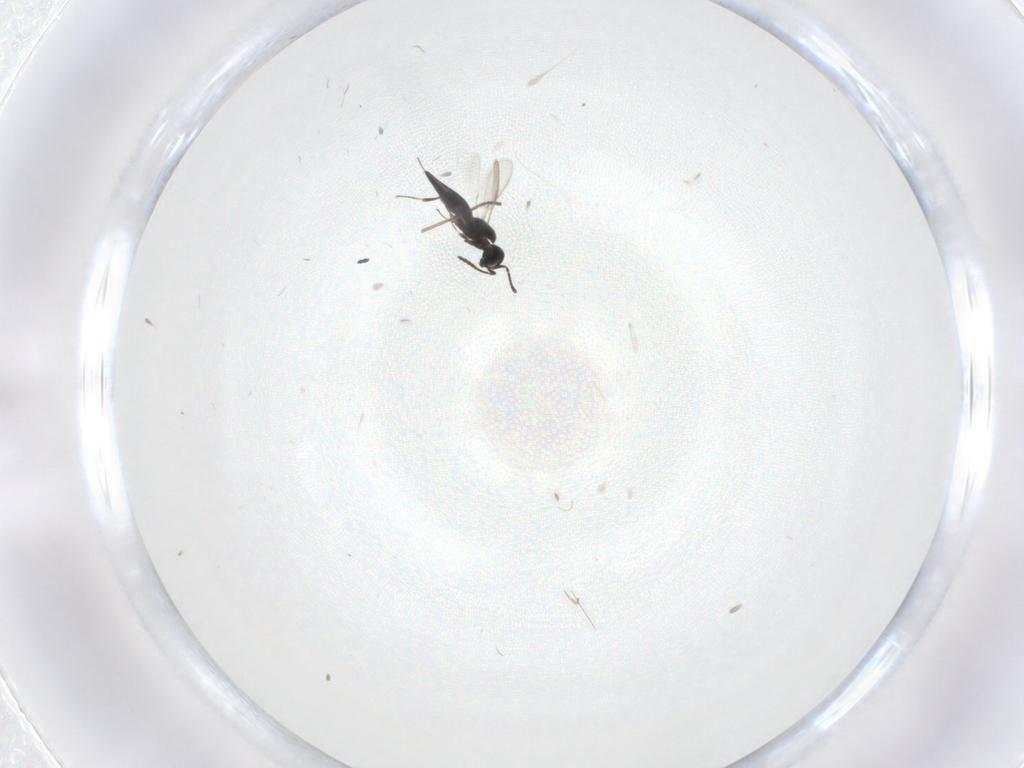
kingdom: Animalia
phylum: Arthropoda
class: Insecta
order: Hymenoptera
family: Scelionidae
